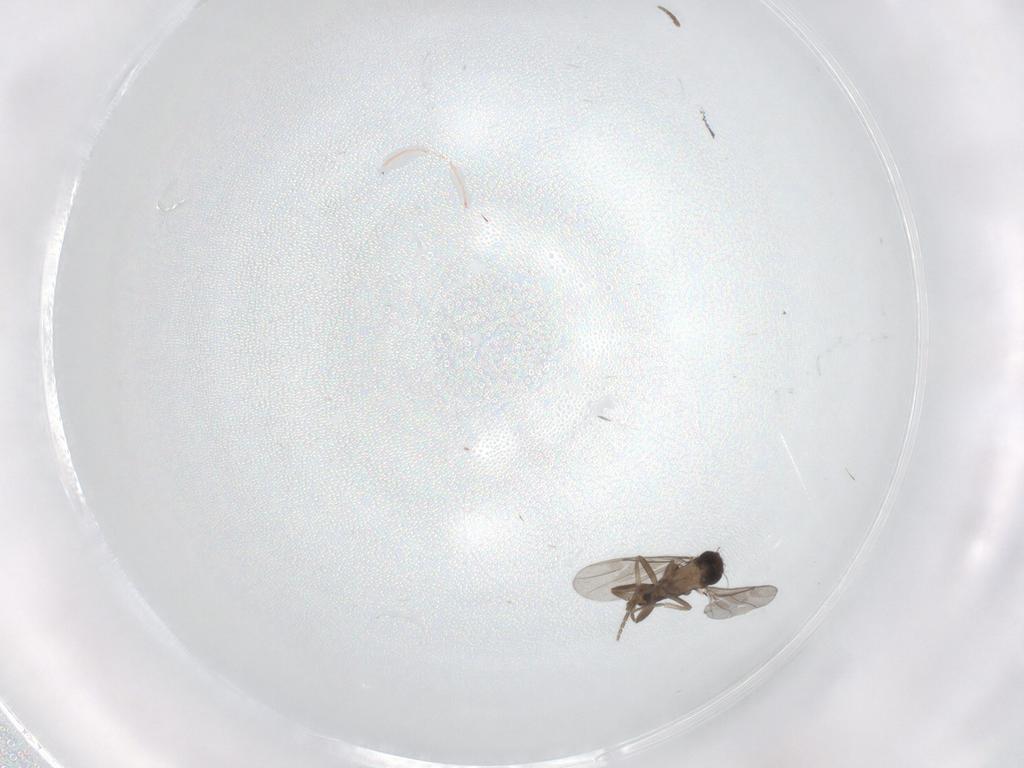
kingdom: Animalia
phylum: Arthropoda
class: Insecta
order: Diptera
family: Cecidomyiidae
